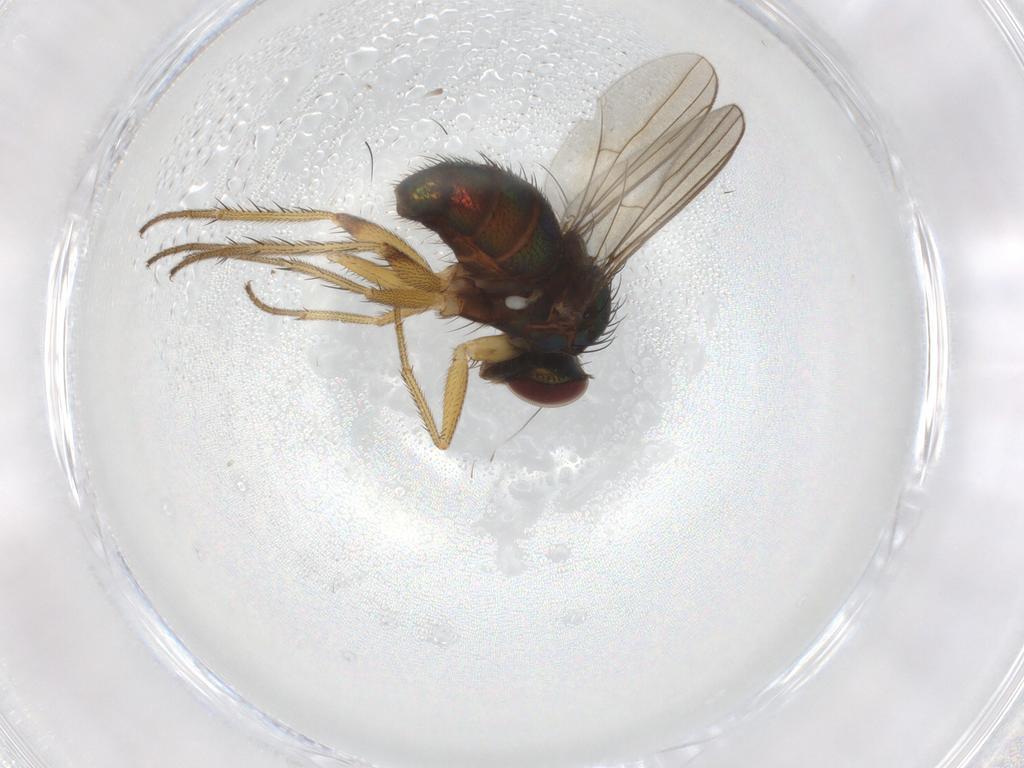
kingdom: Animalia
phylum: Arthropoda
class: Insecta
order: Diptera
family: Dolichopodidae
